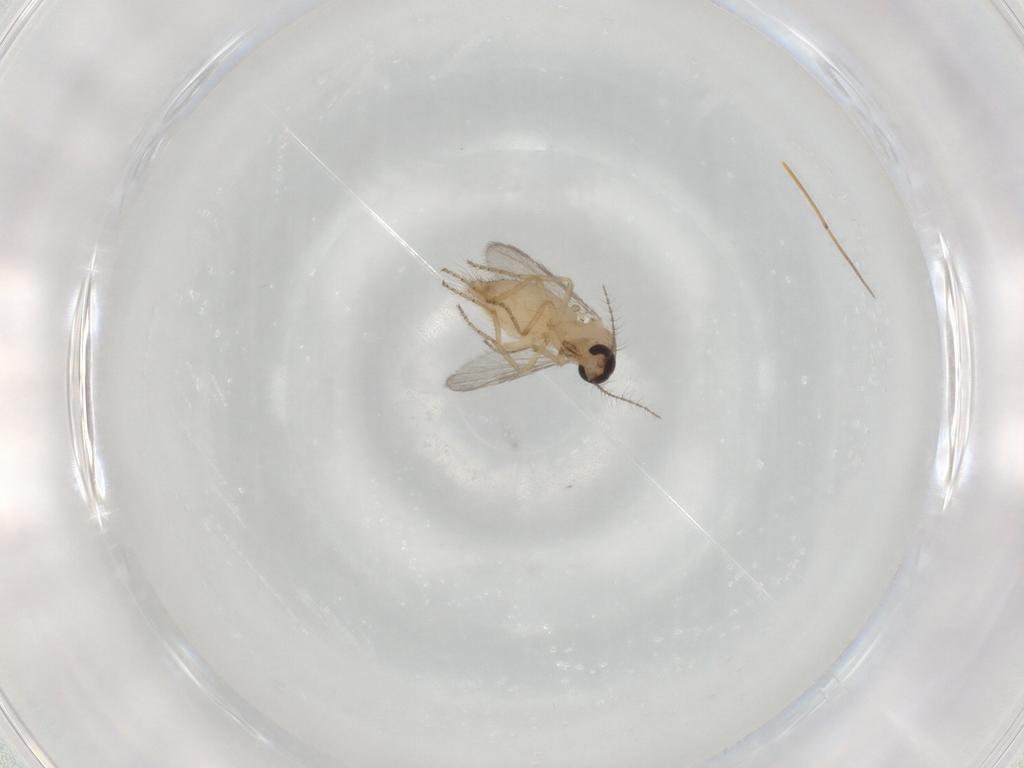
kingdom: Animalia
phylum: Arthropoda
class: Insecta
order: Diptera
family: Ceratopogonidae
